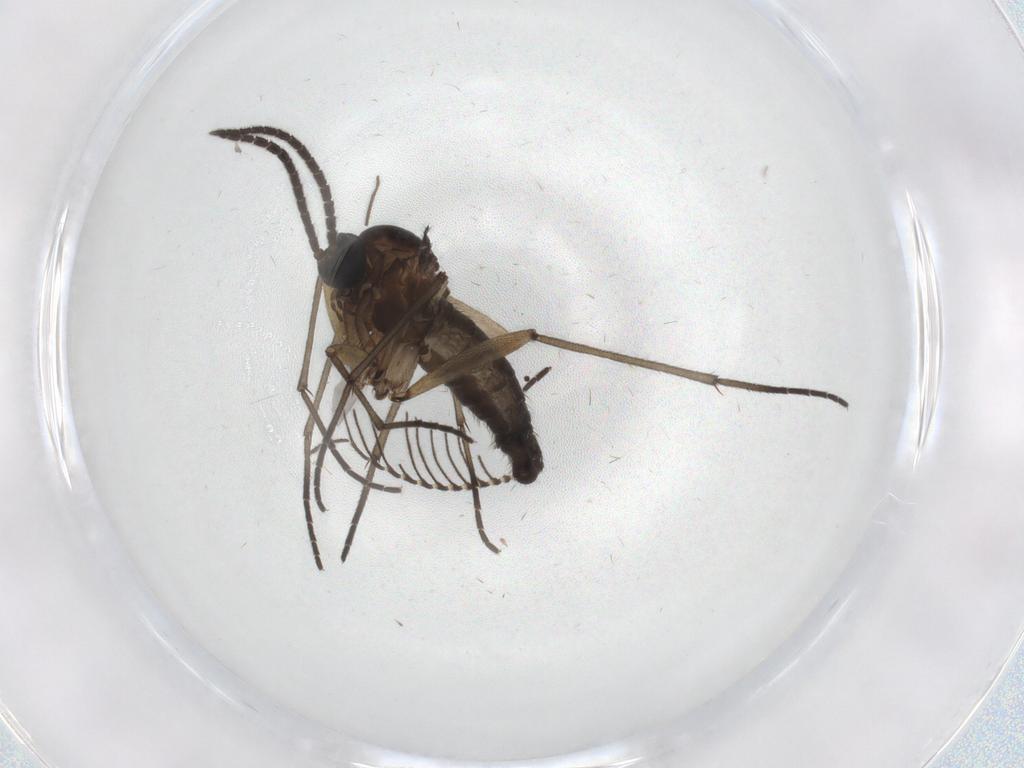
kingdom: Animalia
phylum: Arthropoda
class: Insecta
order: Diptera
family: Sciaridae
